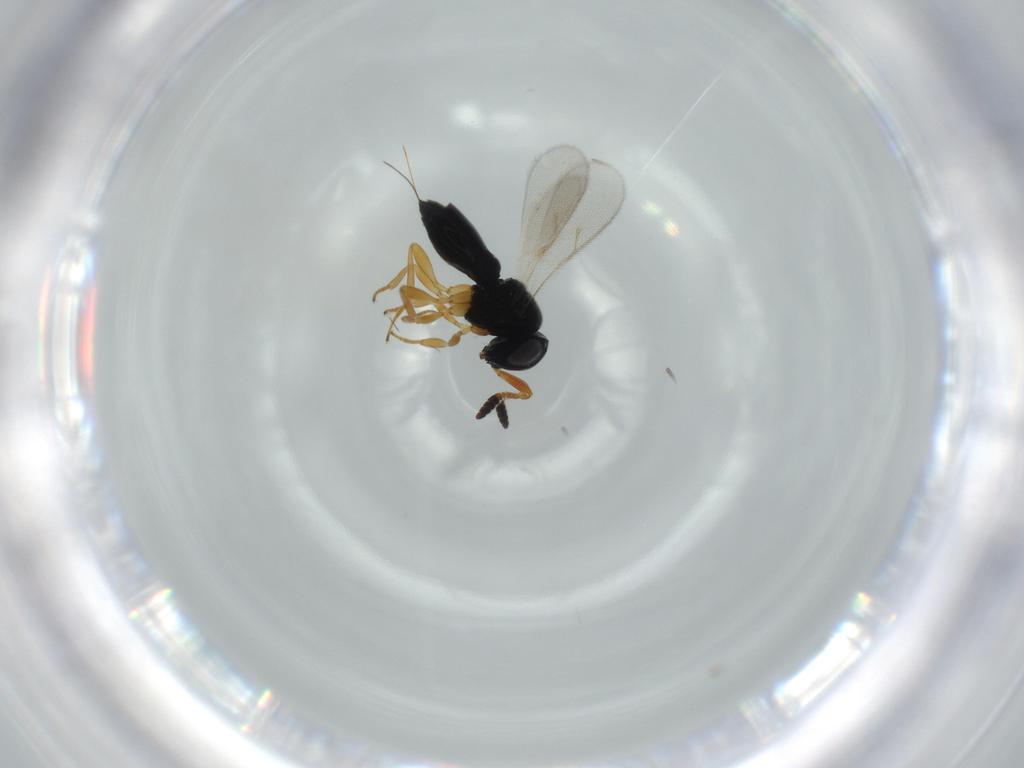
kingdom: Animalia
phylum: Arthropoda
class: Insecta
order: Hymenoptera
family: Scelionidae
